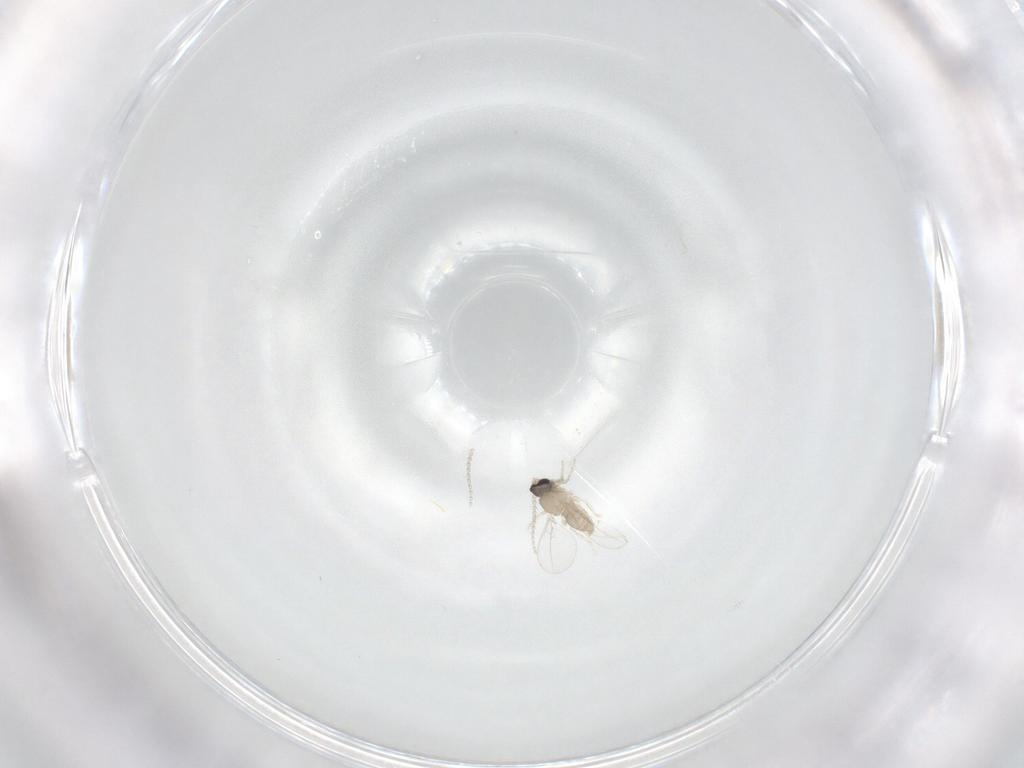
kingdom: Animalia
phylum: Arthropoda
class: Insecta
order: Diptera
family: Cecidomyiidae
